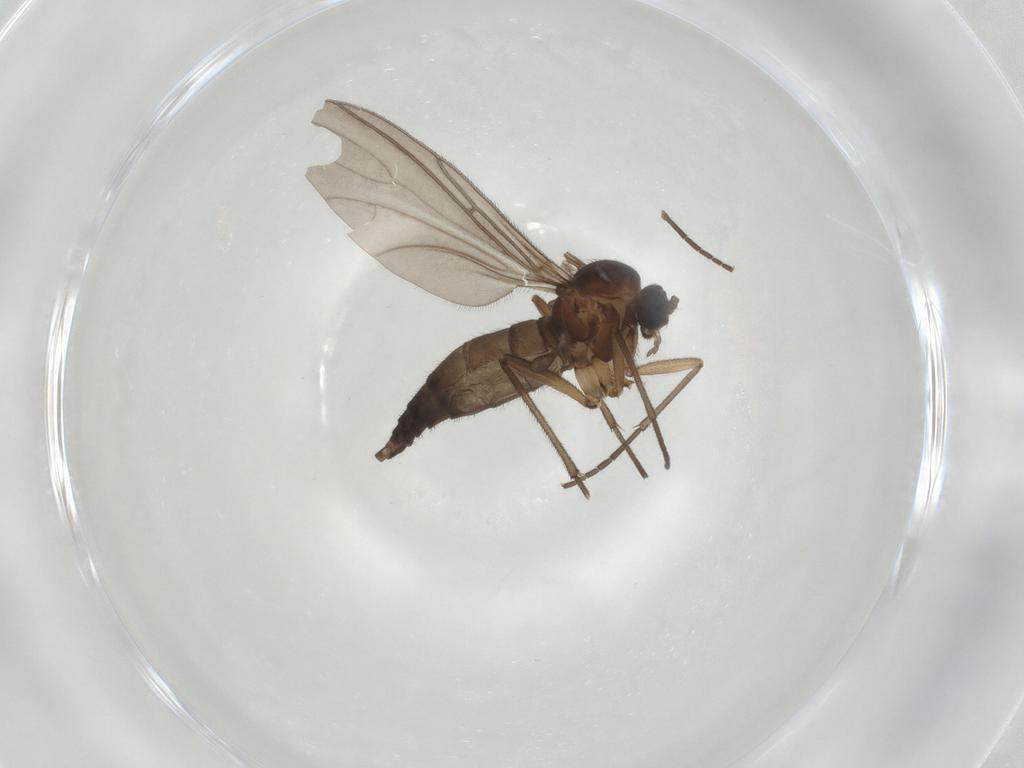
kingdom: Animalia
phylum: Arthropoda
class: Insecta
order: Diptera
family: Sciaridae
